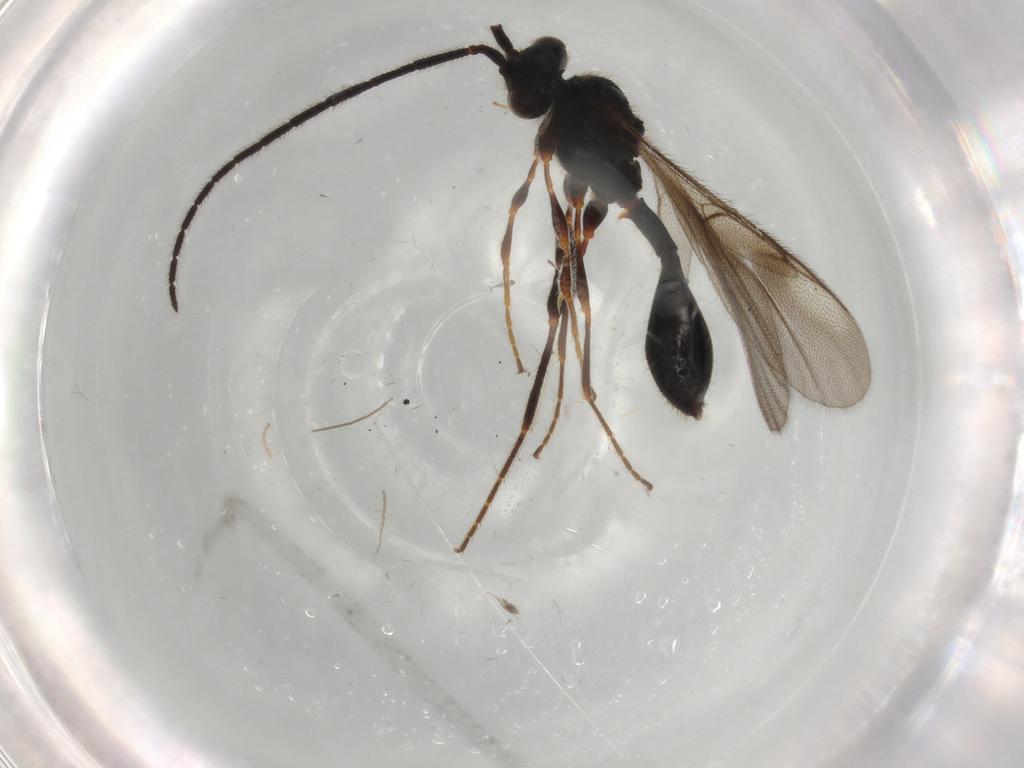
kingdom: Animalia
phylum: Arthropoda
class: Insecta
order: Hymenoptera
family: Diapriidae
